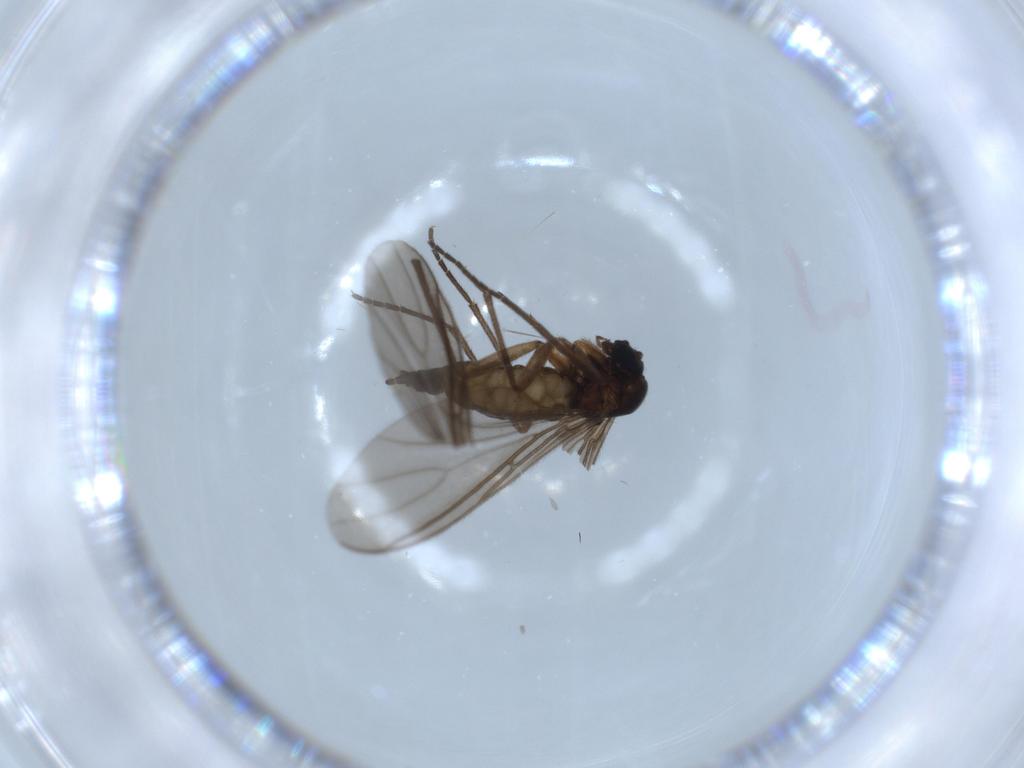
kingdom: Animalia
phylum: Arthropoda
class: Insecta
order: Diptera
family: Sciaridae
